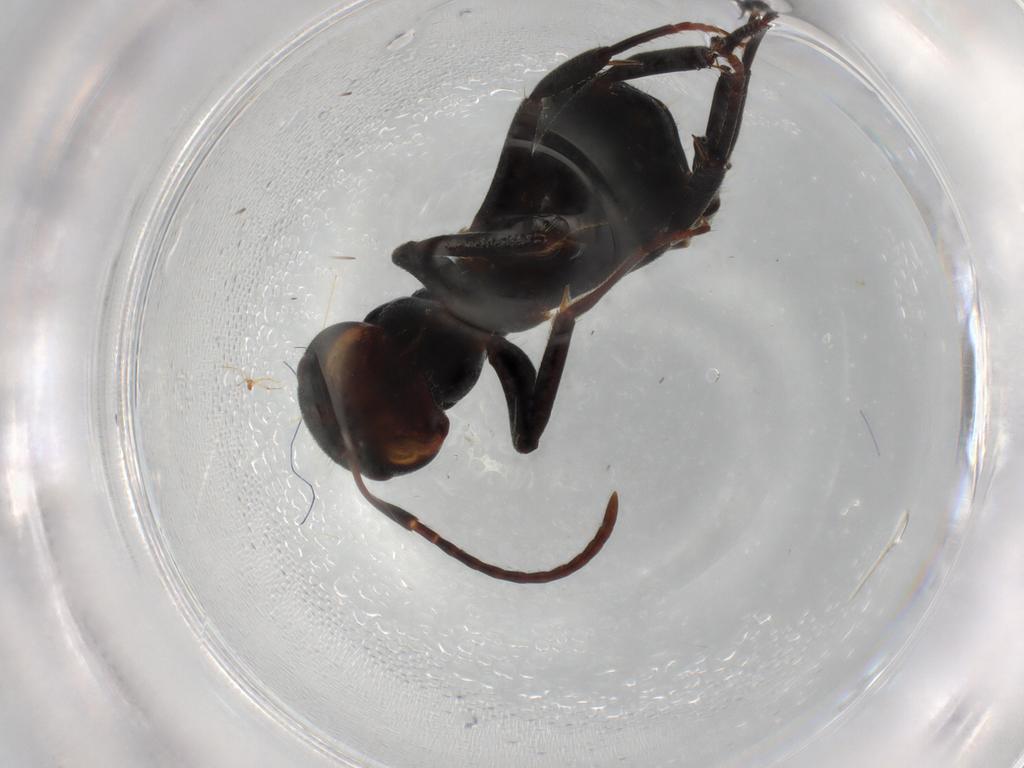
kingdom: Animalia
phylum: Arthropoda
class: Insecta
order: Hymenoptera
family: Formicidae
